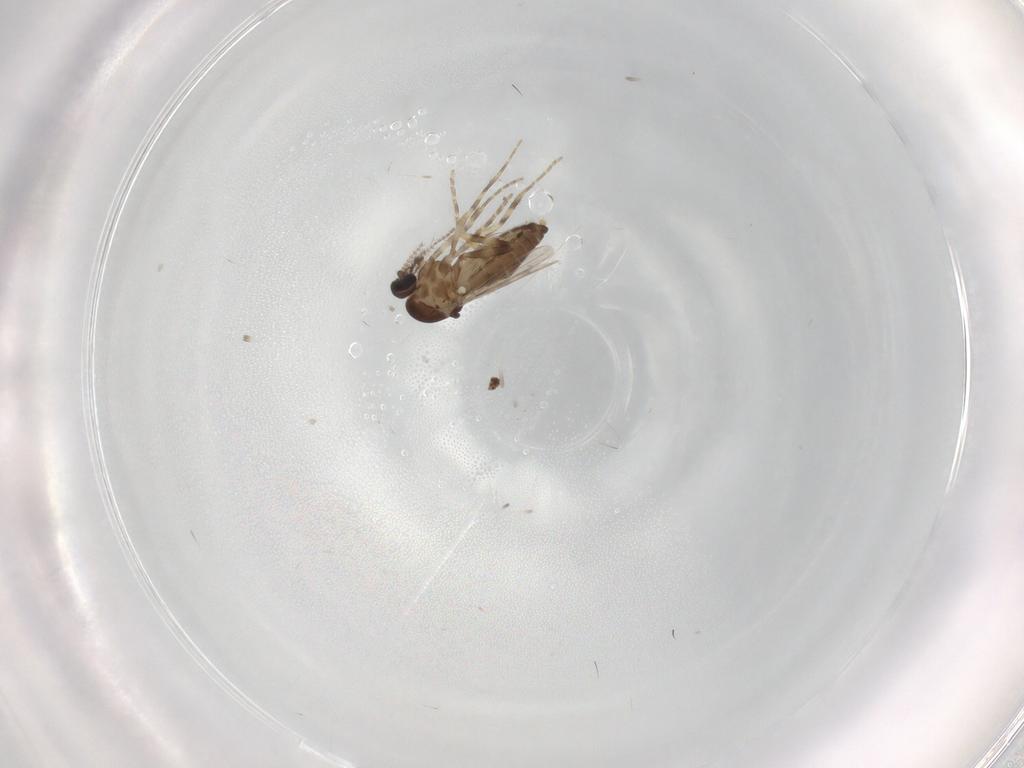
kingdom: Animalia
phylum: Arthropoda
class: Insecta
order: Diptera
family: Ceratopogonidae
